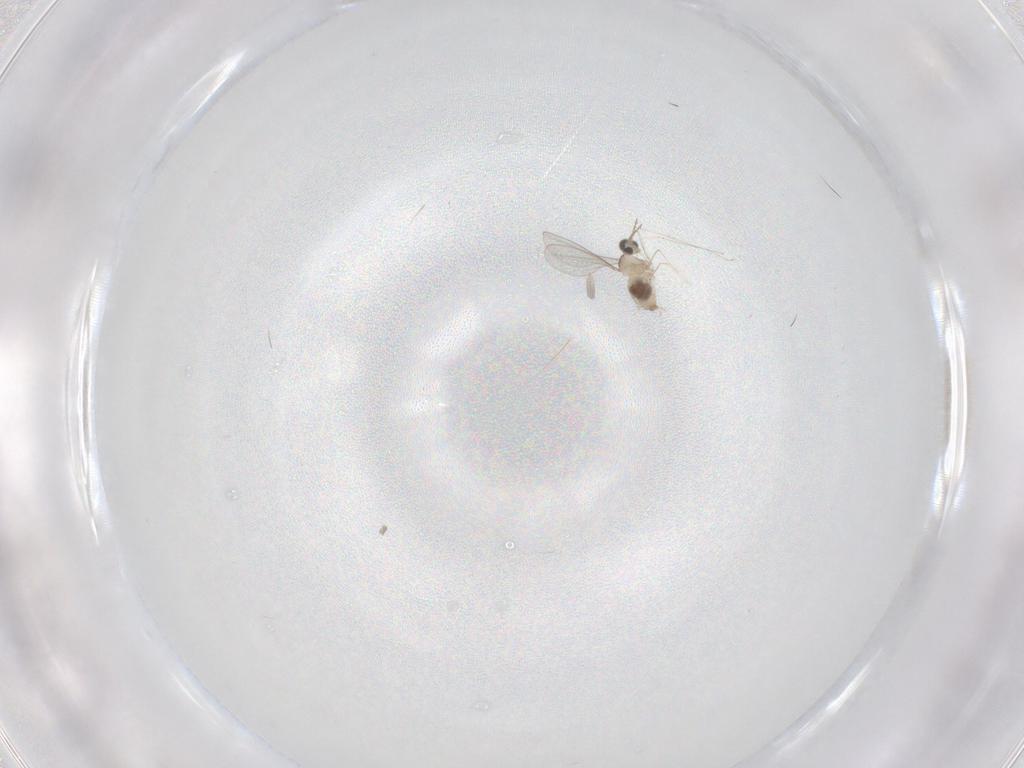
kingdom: Animalia
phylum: Arthropoda
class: Insecta
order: Diptera
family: Cecidomyiidae
